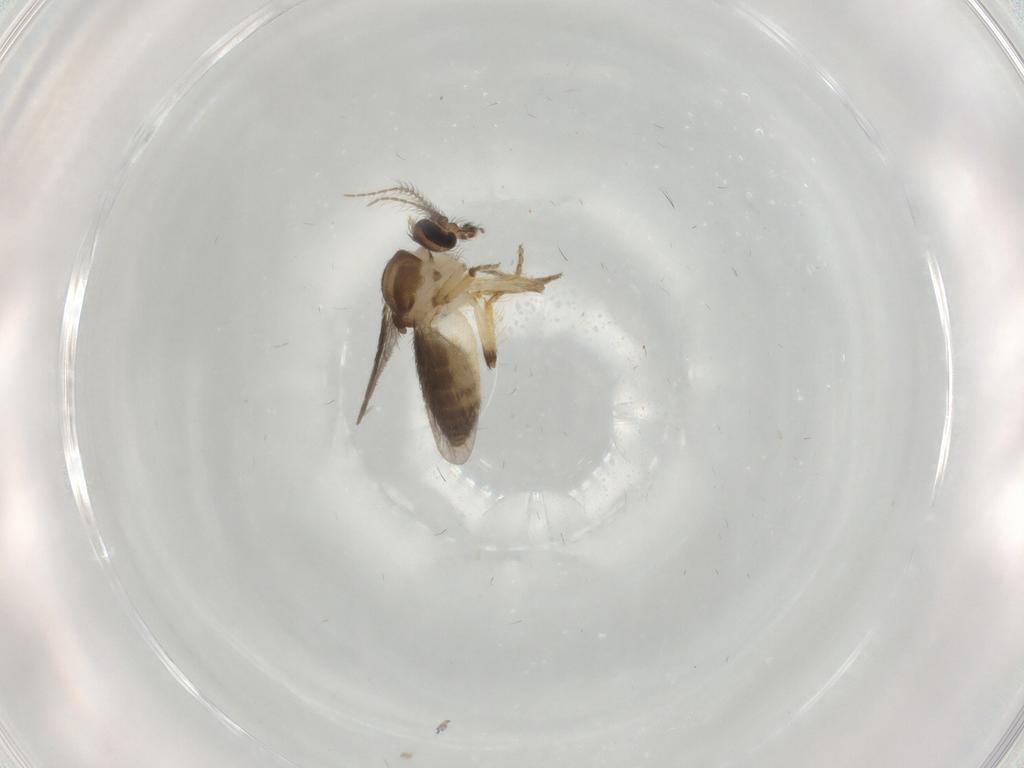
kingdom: Animalia
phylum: Arthropoda
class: Insecta
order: Diptera
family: Ceratopogonidae
